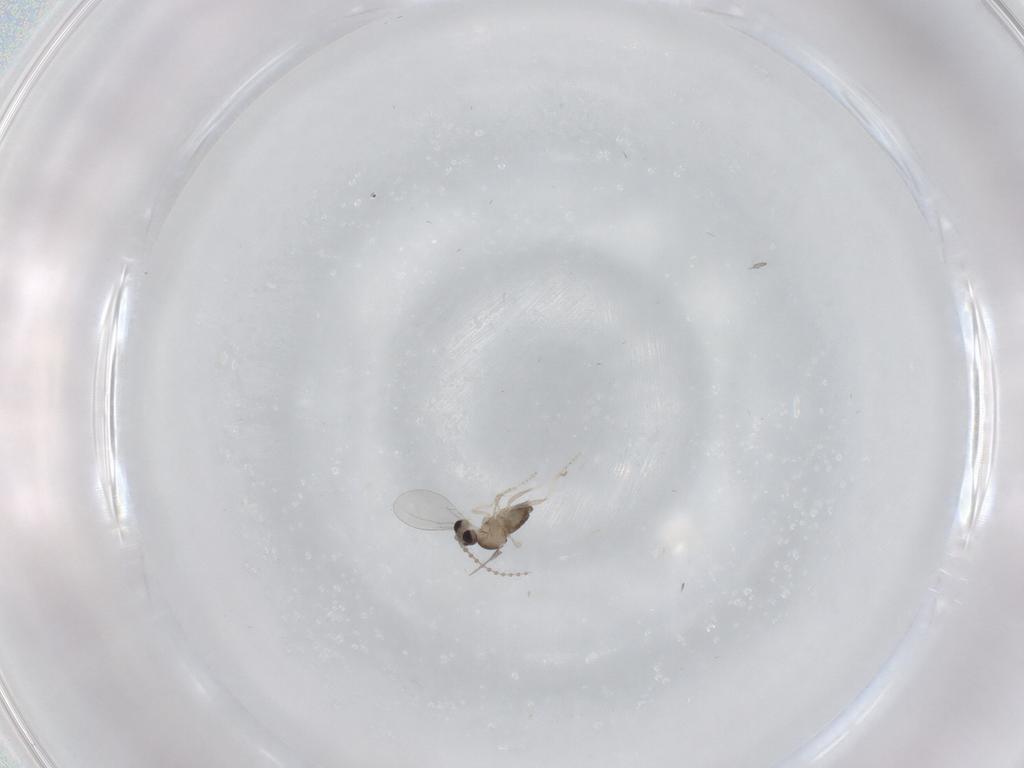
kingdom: Animalia
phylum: Arthropoda
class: Insecta
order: Diptera
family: Cecidomyiidae
